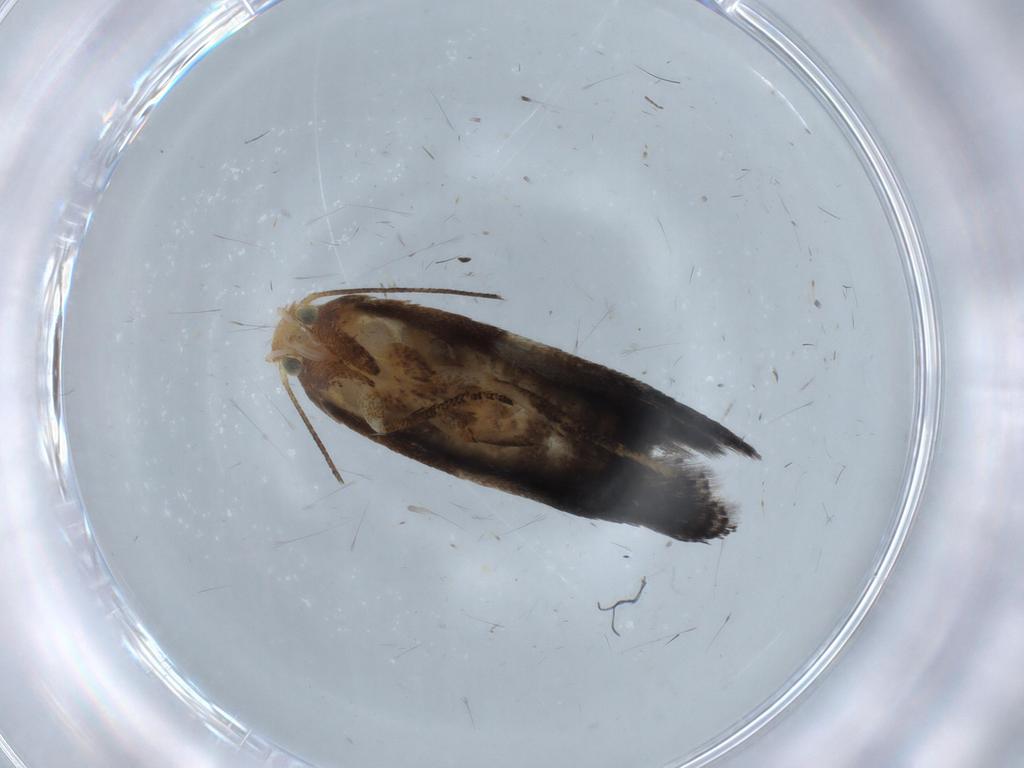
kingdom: Animalia
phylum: Arthropoda
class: Insecta
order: Lepidoptera
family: Gelechiidae
